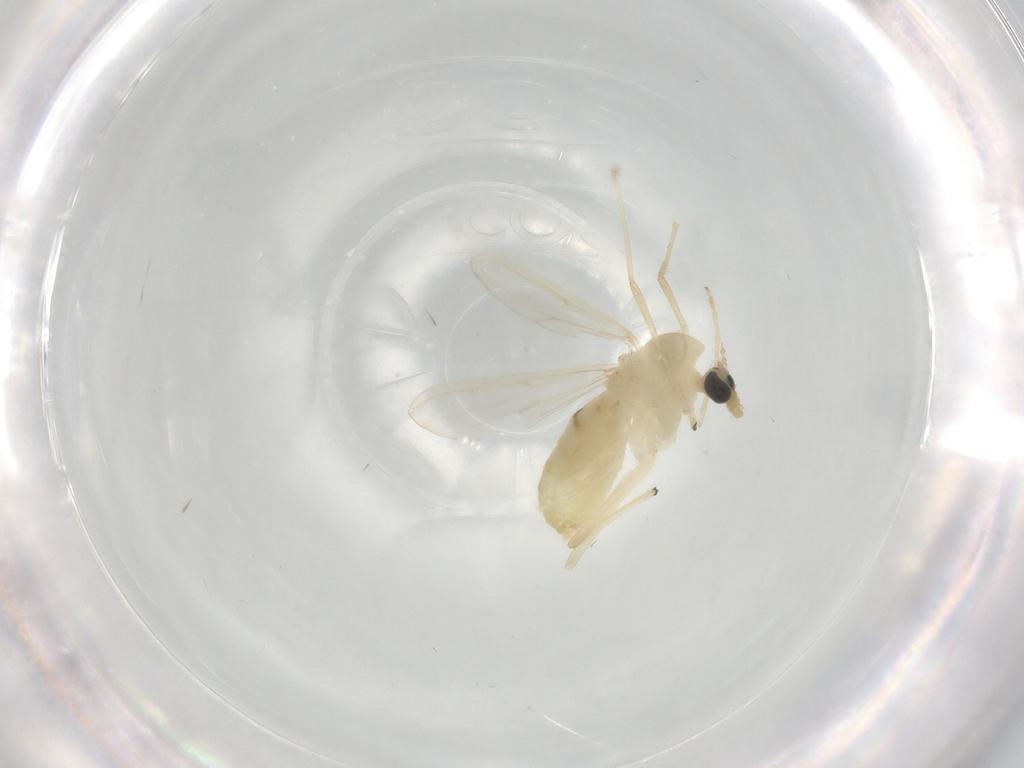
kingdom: Animalia
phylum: Arthropoda
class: Insecta
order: Diptera
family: Chironomidae
